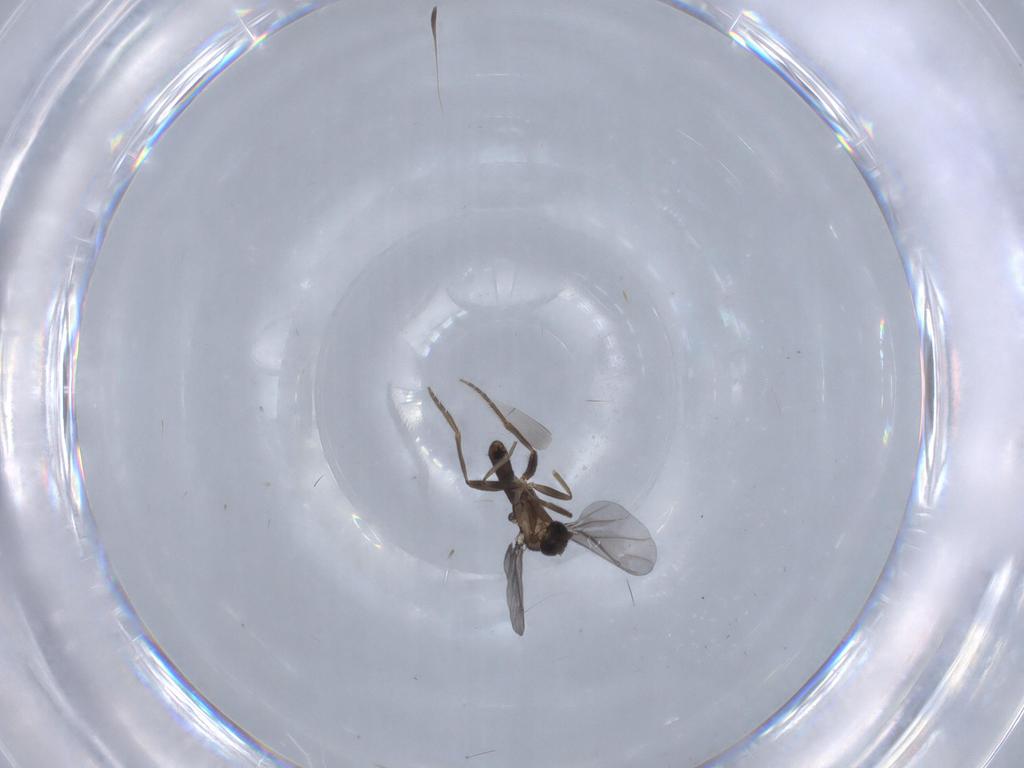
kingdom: Animalia
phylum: Arthropoda
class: Insecta
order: Diptera
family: Phoridae
